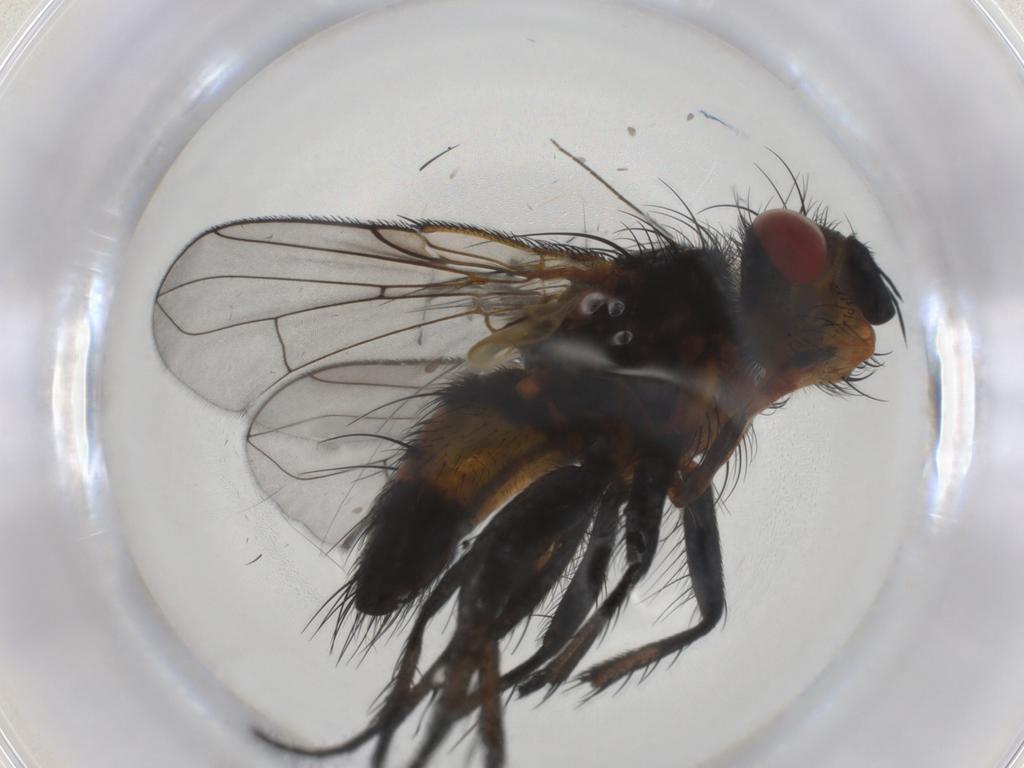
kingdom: Animalia
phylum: Arthropoda
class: Insecta
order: Diptera
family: Tachinidae
